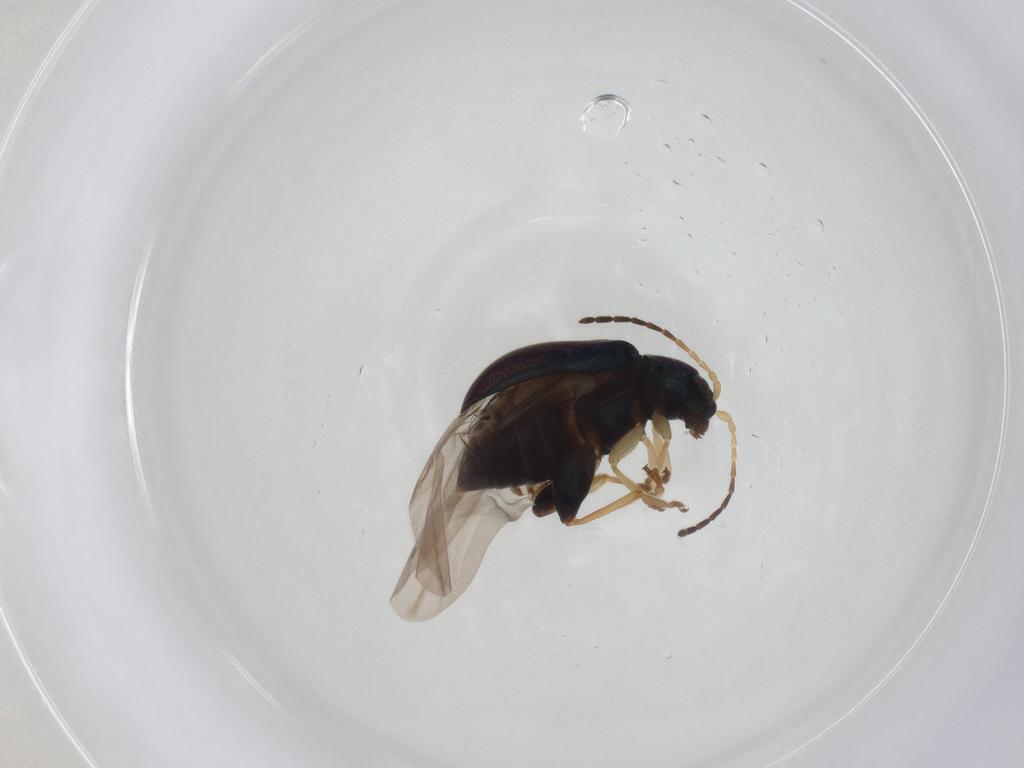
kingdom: Animalia
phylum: Arthropoda
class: Insecta
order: Coleoptera
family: Chrysomelidae
